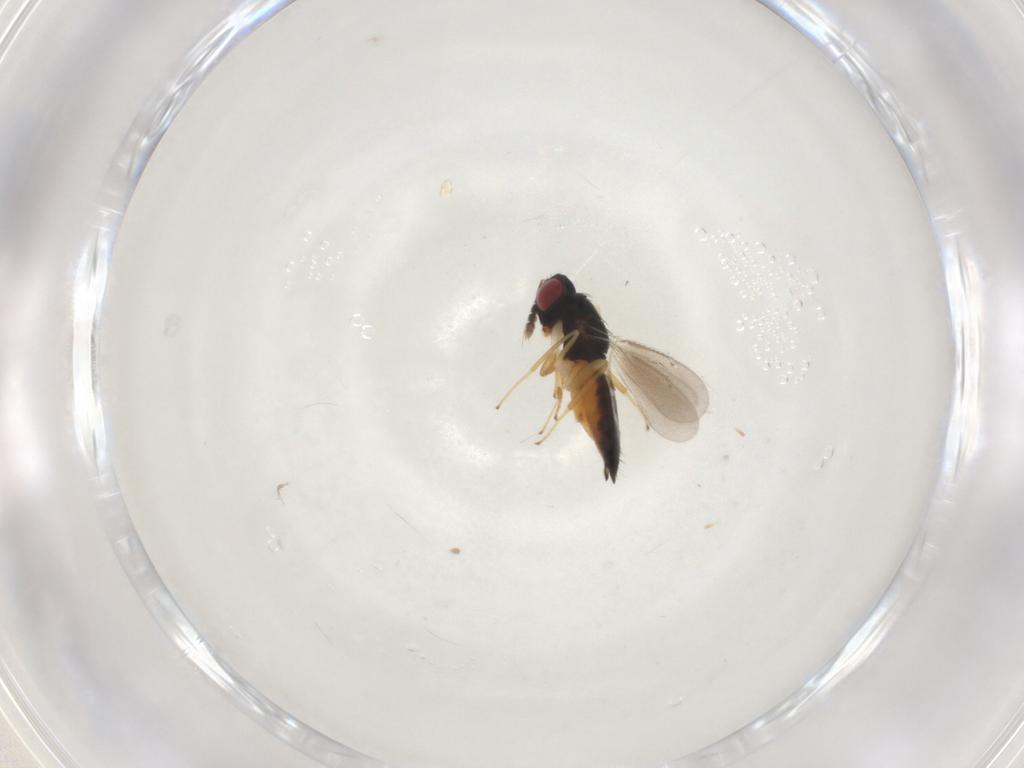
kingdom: Animalia
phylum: Arthropoda
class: Insecta
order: Hymenoptera
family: Eulophidae
